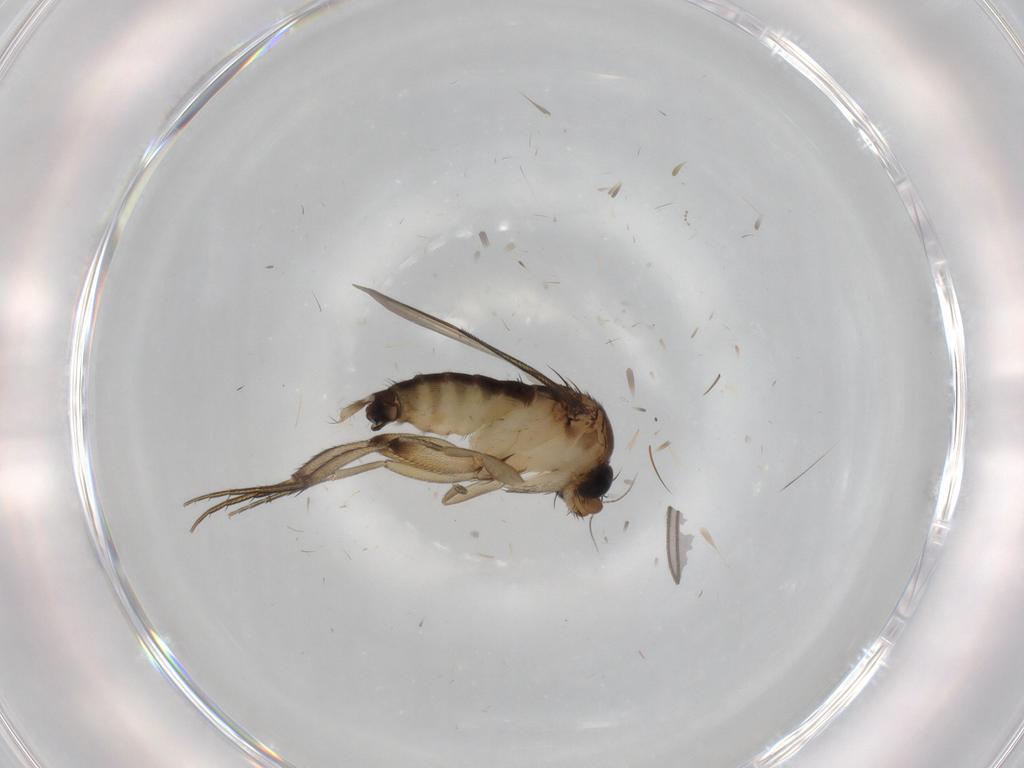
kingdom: Animalia
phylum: Arthropoda
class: Insecta
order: Diptera
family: Phoridae
